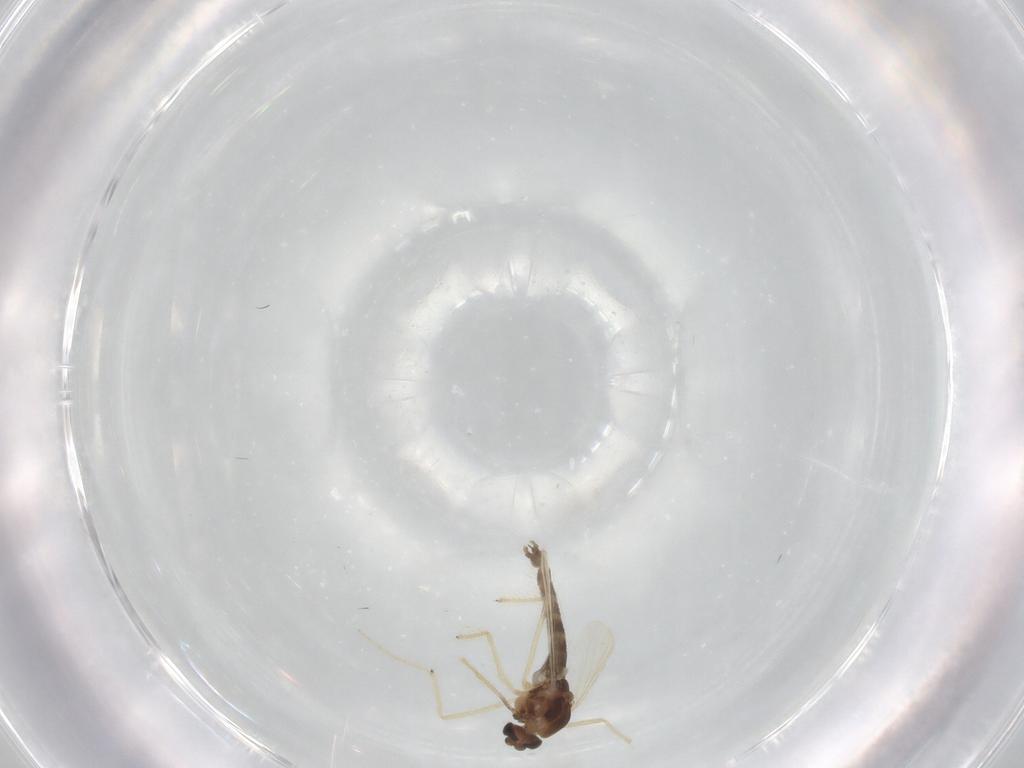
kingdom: Animalia
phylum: Arthropoda
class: Insecta
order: Diptera
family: Chironomidae
